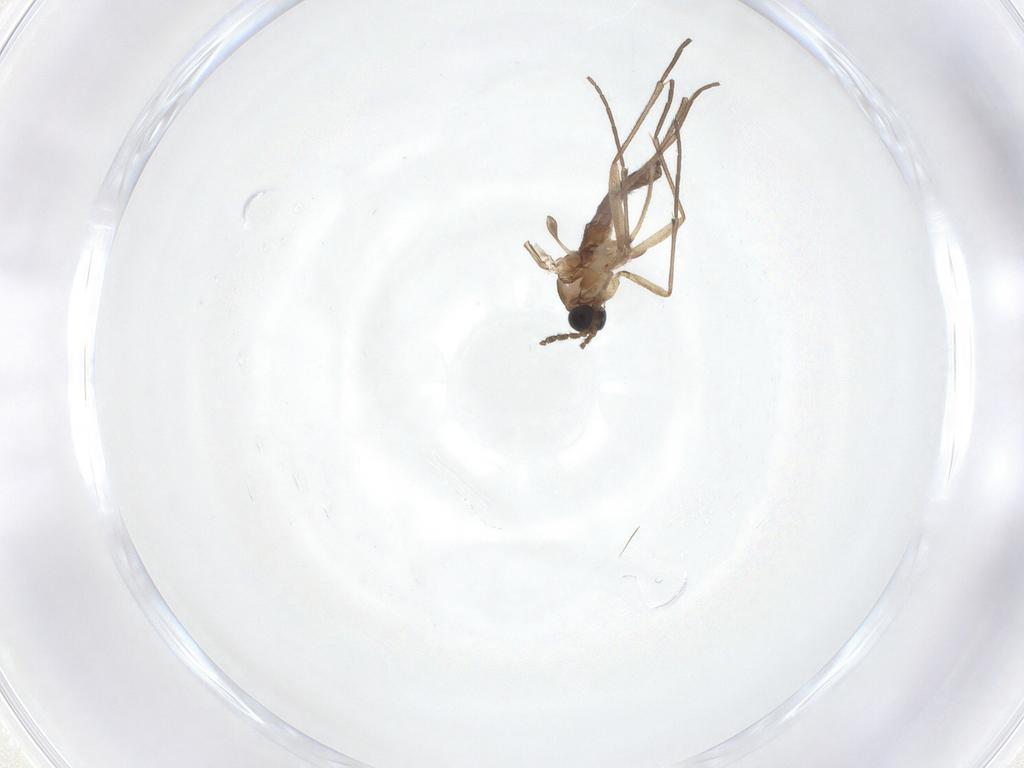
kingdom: Animalia
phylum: Arthropoda
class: Insecta
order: Diptera
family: Sciaridae
